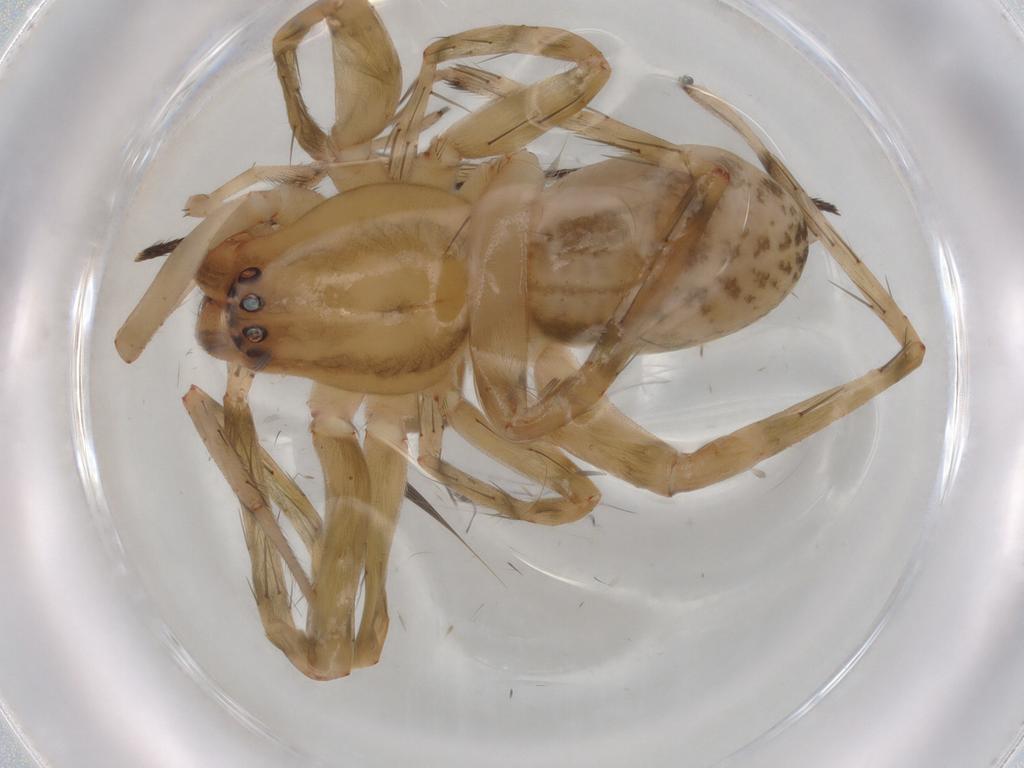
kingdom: Animalia
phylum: Arthropoda
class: Arachnida
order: Araneae
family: Anyphaenidae
